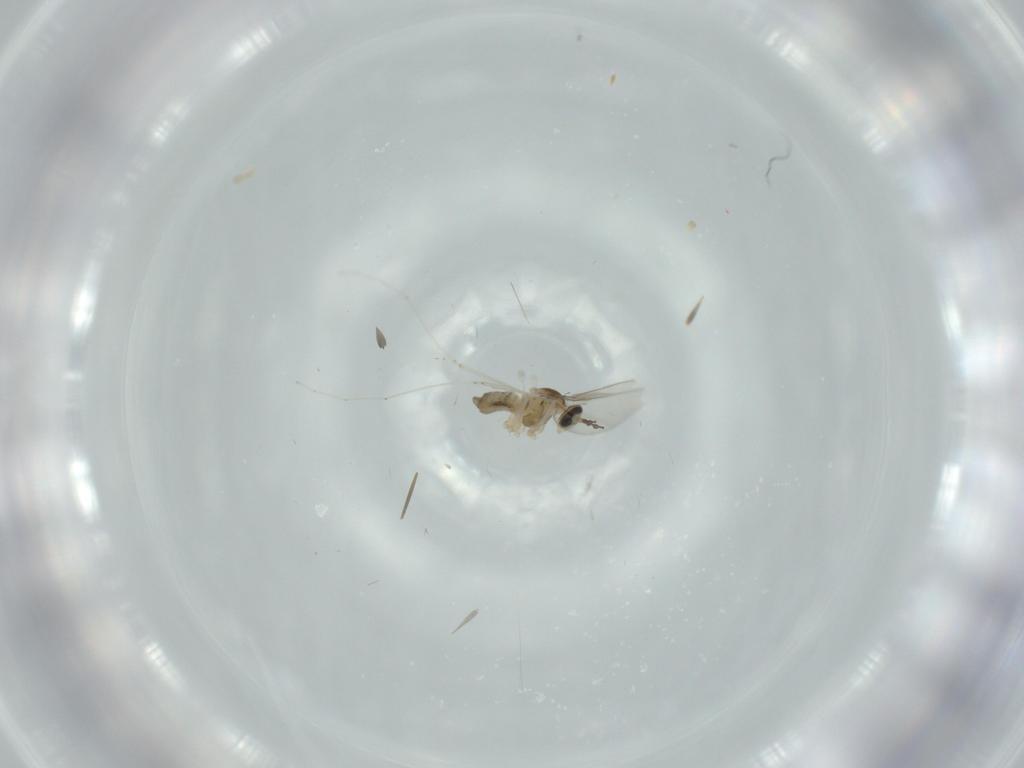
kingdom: Animalia
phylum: Arthropoda
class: Insecta
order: Diptera
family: Cecidomyiidae
